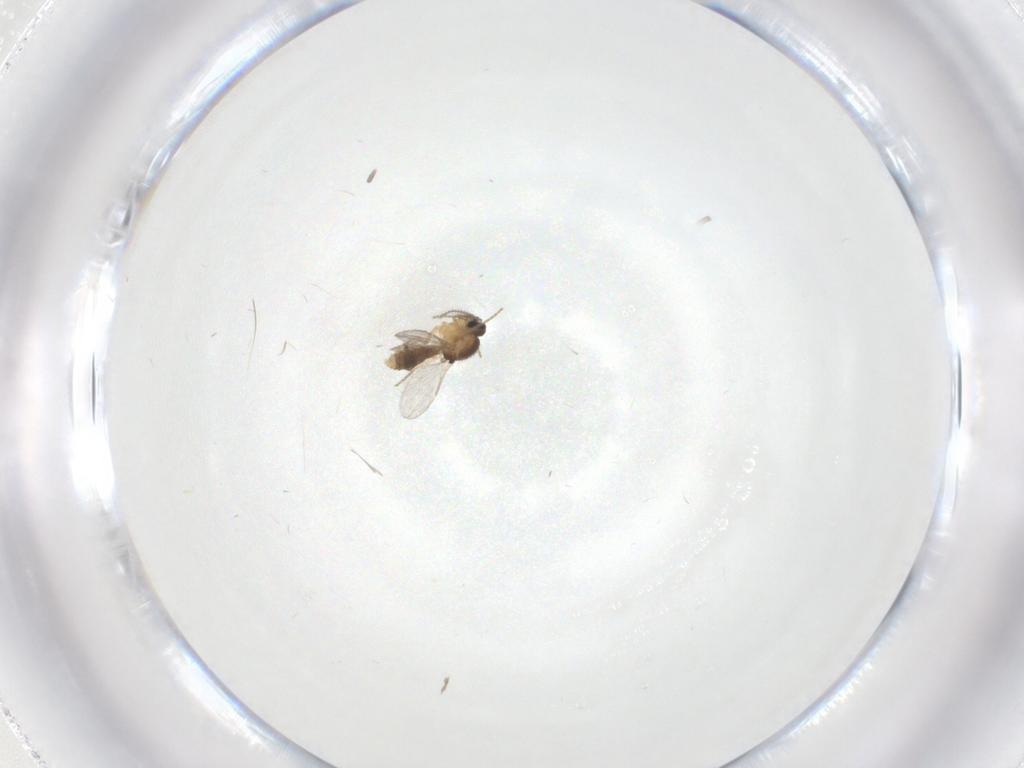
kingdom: Animalia
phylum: Arthropoda
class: Insecta
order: Diptera
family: Ceratopogonidae
